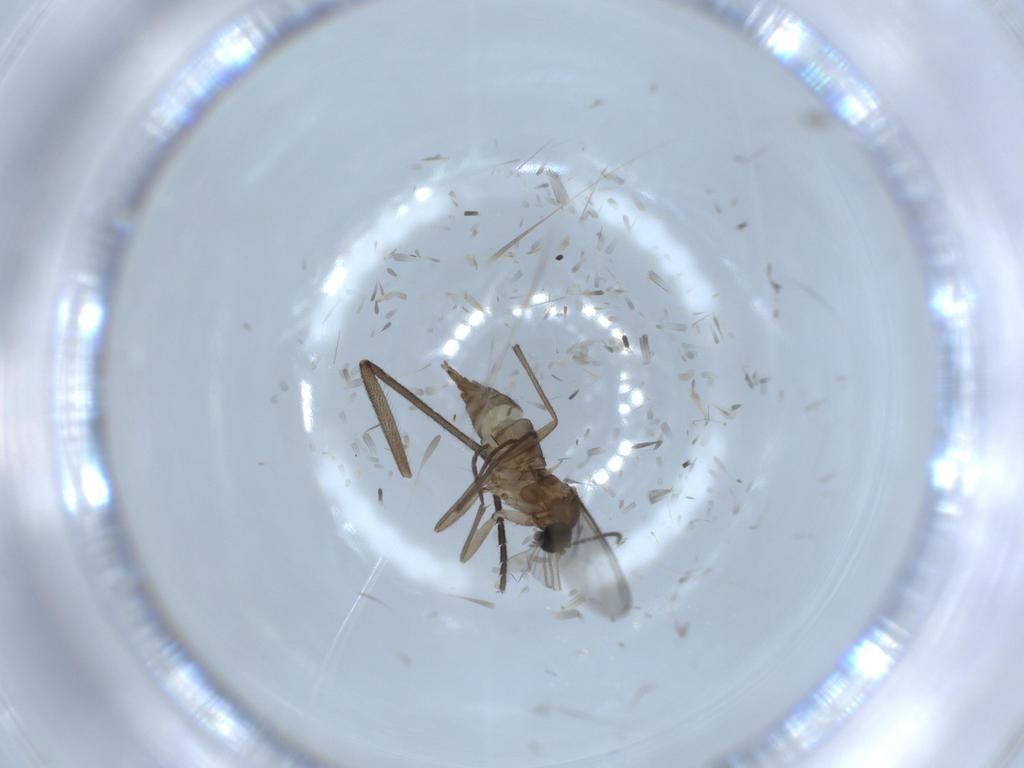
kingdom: Animalia
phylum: Arthropoda
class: Insecta
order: Diptera
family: Sciaridae
